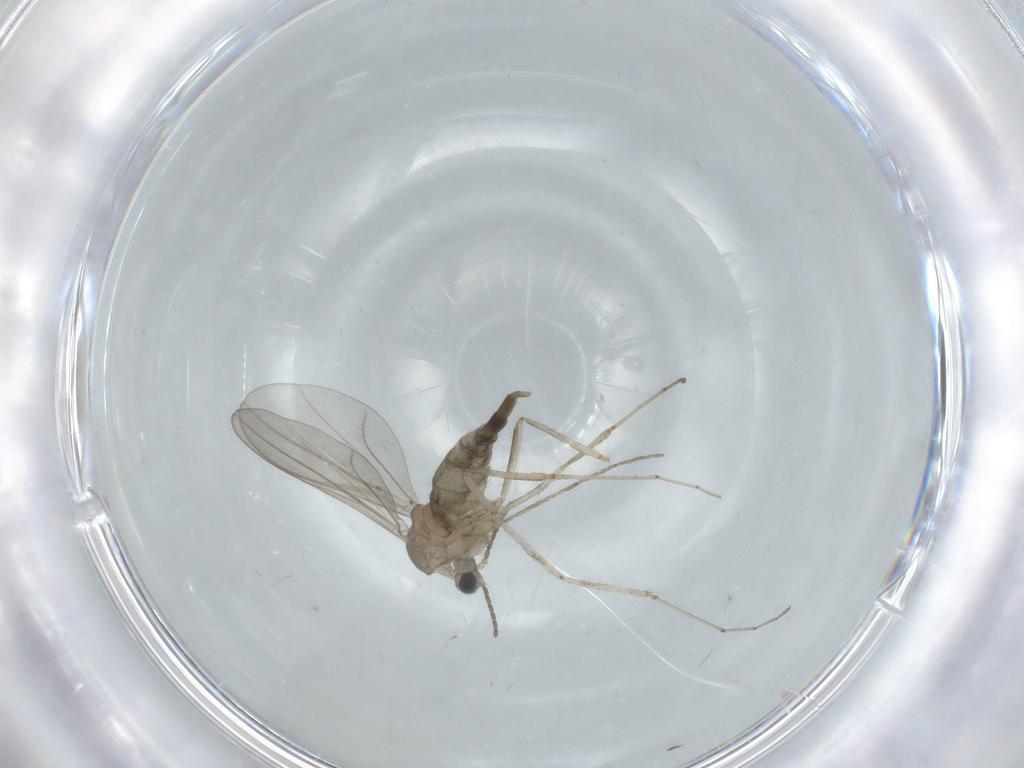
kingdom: Animalia
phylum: Arthropoda
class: Insecta
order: Diptera
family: Cecidomyiidae
